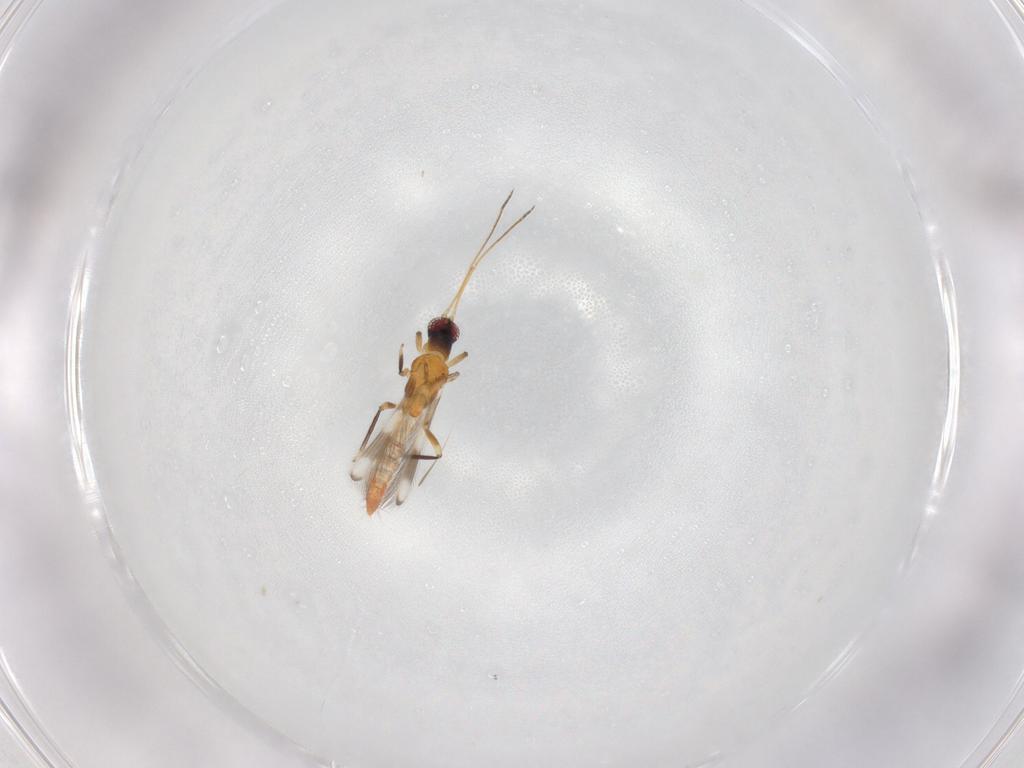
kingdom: Animalia
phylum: Arthropoda
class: Insecta
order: Thysanoptera
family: Aeolothripidae
